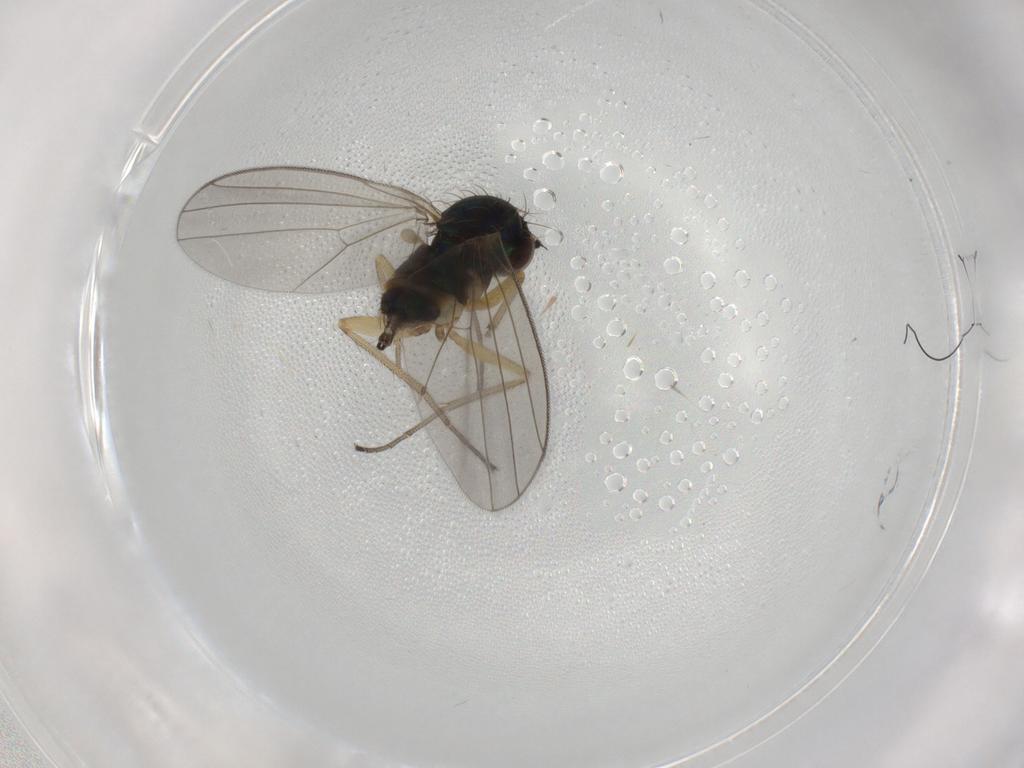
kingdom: Animalia
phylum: Arthropoda
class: Insecta
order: Diptera
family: Dolichopodidae
